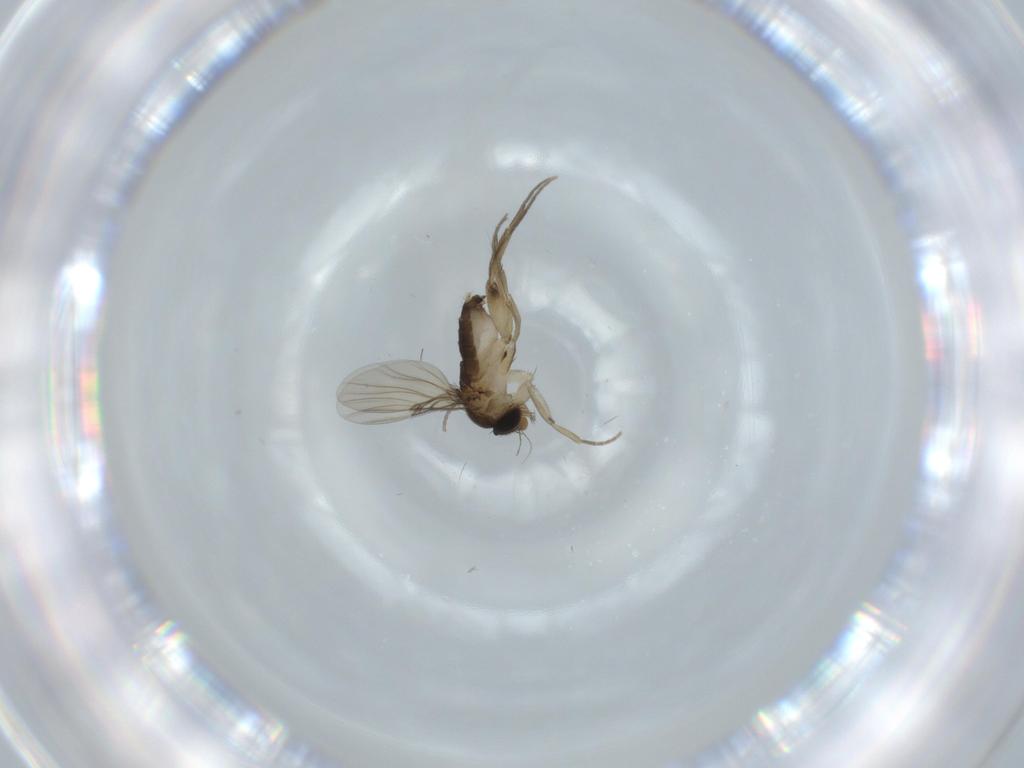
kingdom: Animalia
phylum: Arthropoda
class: Insecta
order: Diptera
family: Phoridae
